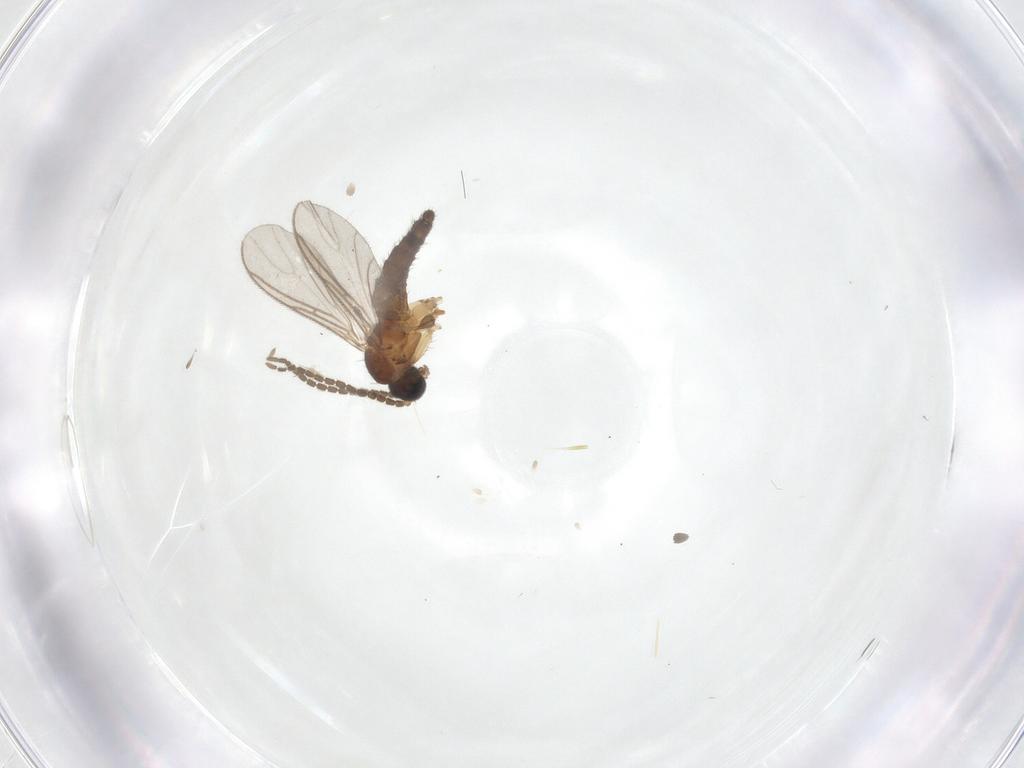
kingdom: Animalia
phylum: Arthropoda
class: Insecta
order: Diptera
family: Sciaridae
